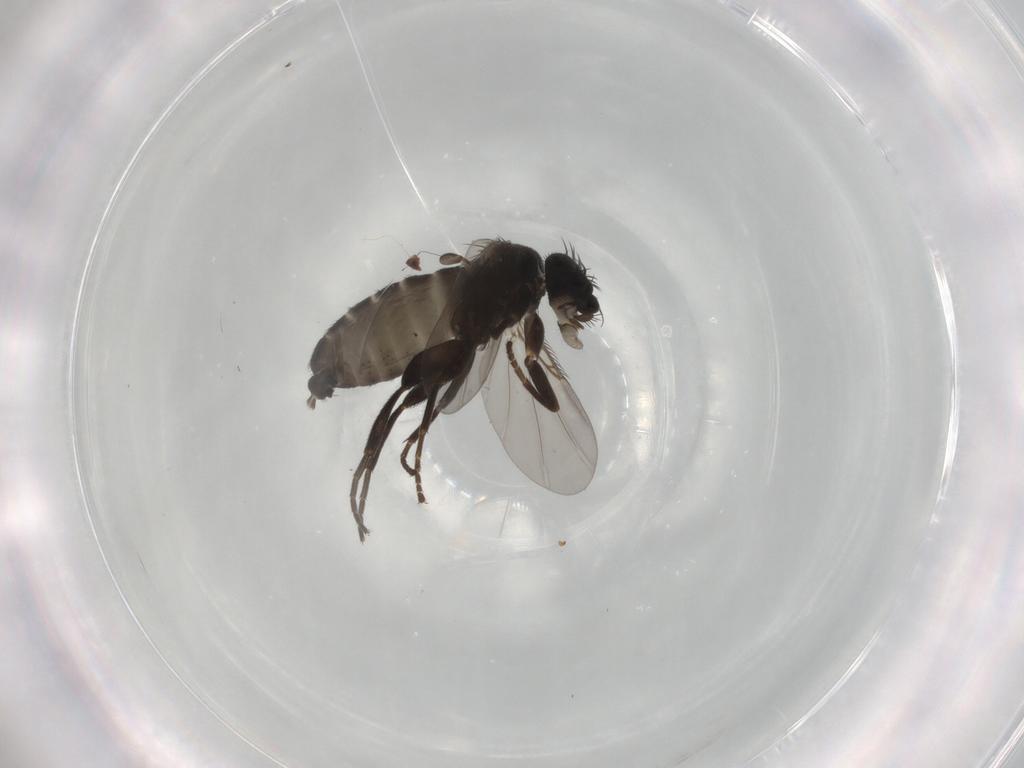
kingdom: Animalia
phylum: Arthropoda
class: Insecta
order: Diptera
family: Phoridae
